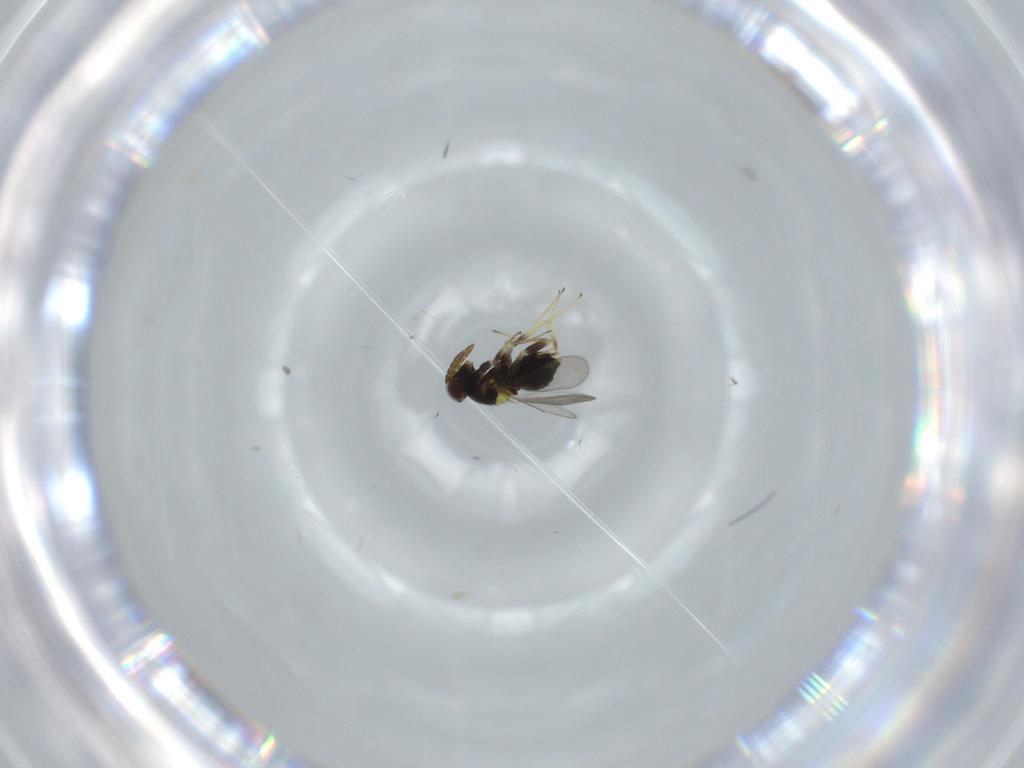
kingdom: Animalia
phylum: Arthropoda
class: Insecta
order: Hymenoptera
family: Aphelinidae
